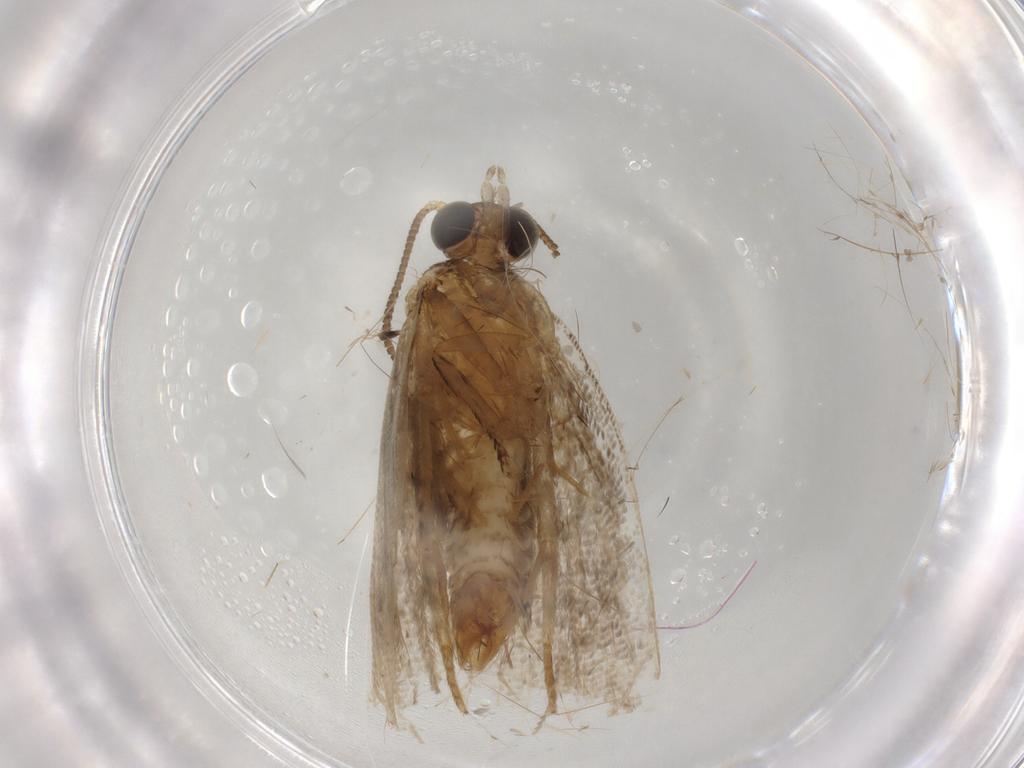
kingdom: Animalia
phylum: Arthropoda
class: Insecta
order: Lepidoptera
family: Tortricidae
